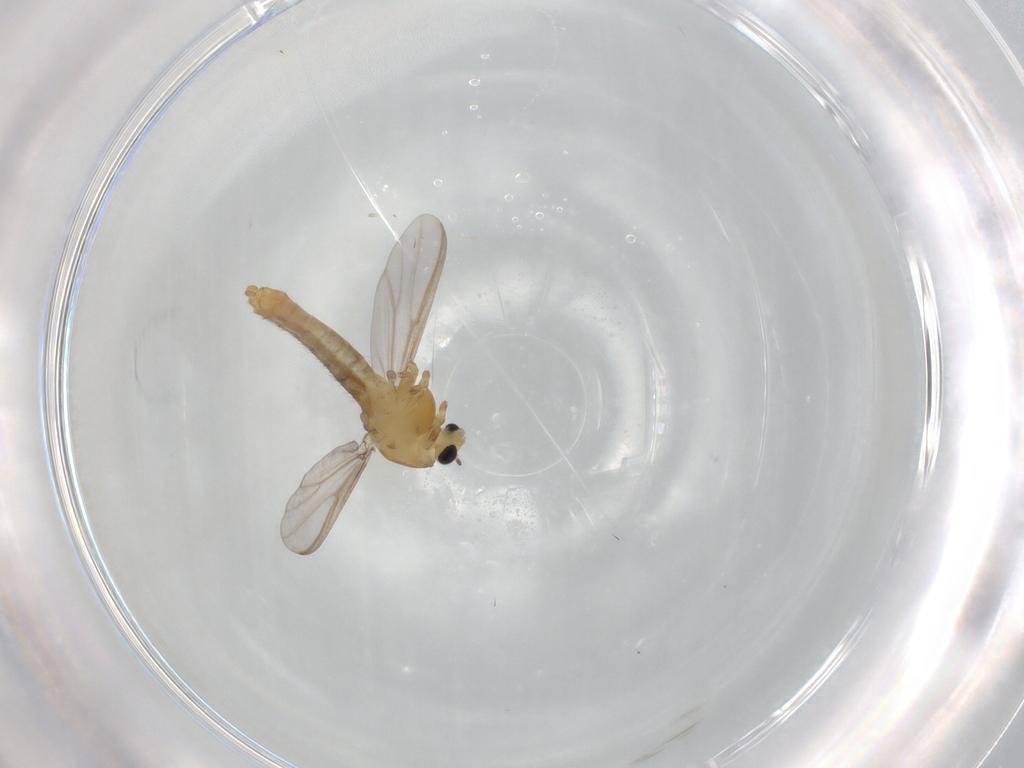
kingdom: Animalia
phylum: Arthropoda
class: Insecta
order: Diptera
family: Chironomidae
